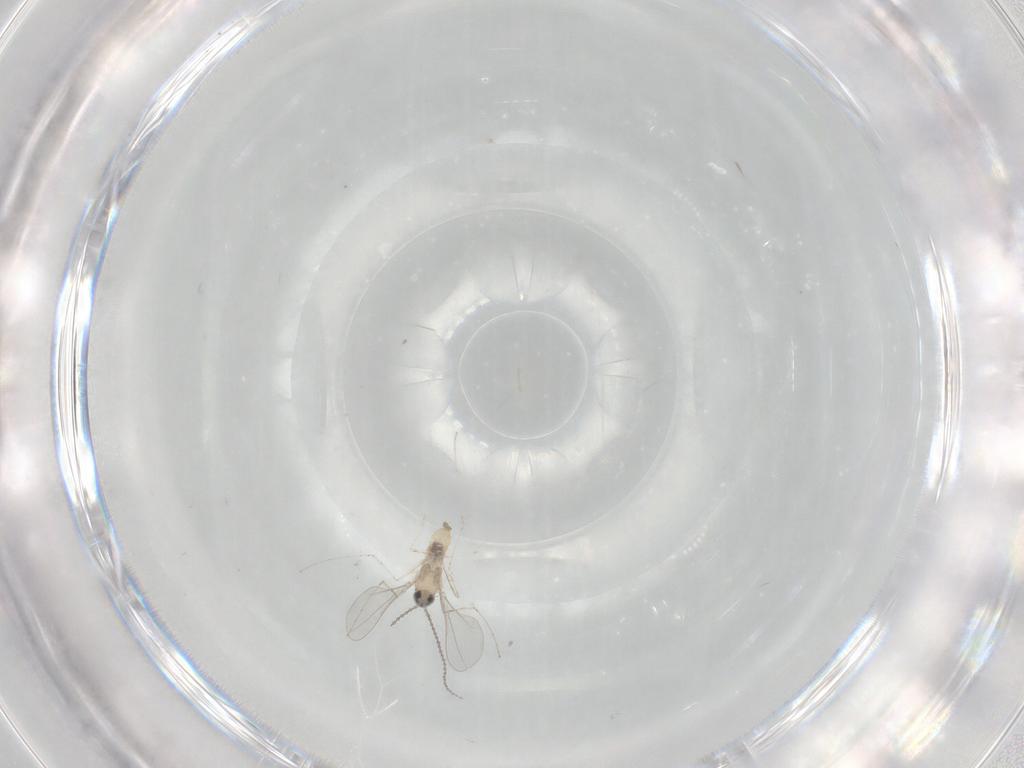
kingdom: Animalia
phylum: Arthropoda
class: Insecta
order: Diptera
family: Cecidomyiidae
